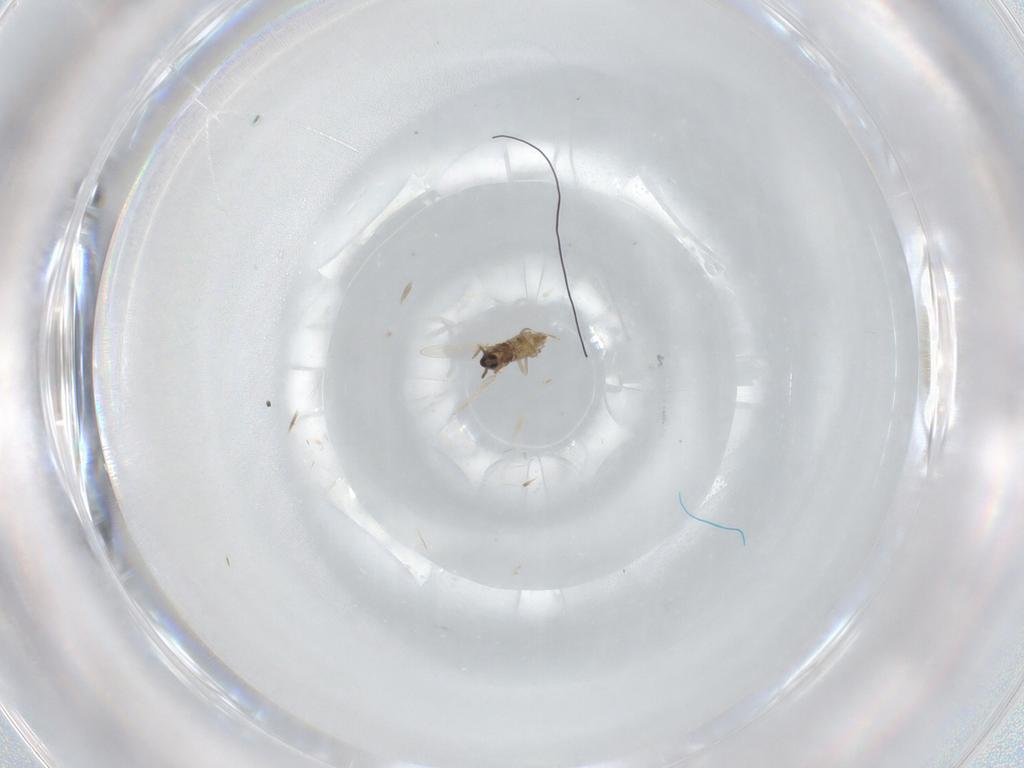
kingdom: Animalia
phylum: Arthropoda
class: Insecta
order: Diptera
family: Cecidomyiidae
